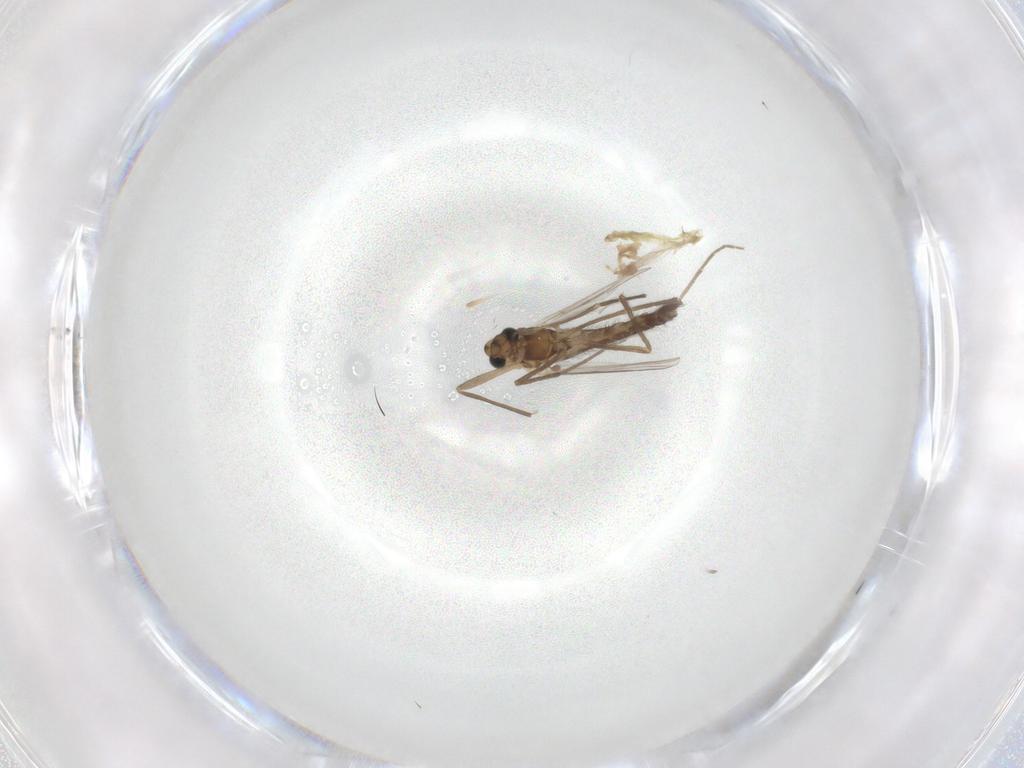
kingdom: Animalia
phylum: Arthropoda
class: Insecta
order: Diptera
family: Chironomidae
